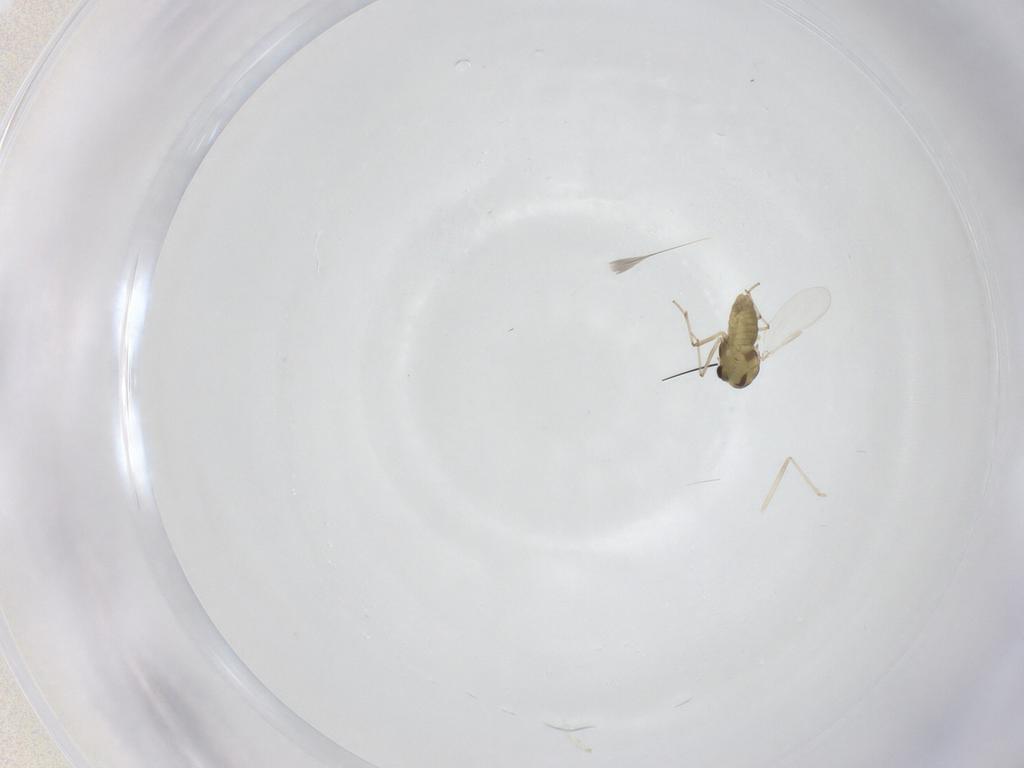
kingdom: Animalia
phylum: Arthropoda
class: Insecta
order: Diptera
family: Chironomidae
